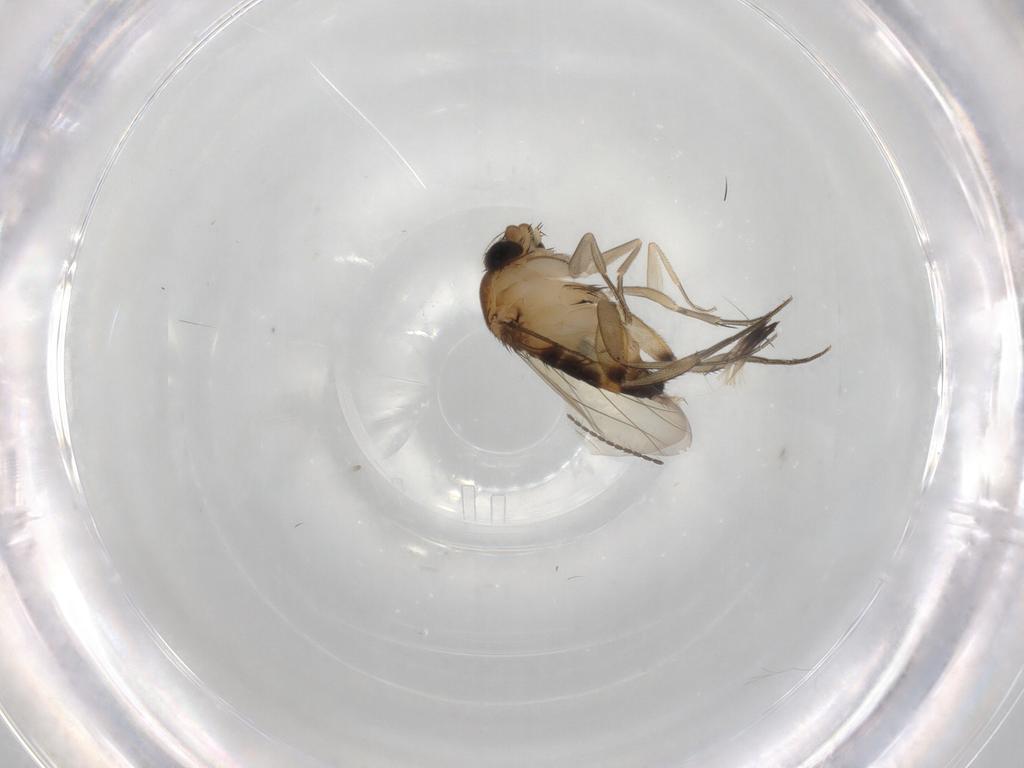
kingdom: Animalia
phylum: Arthropoda
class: Insecta
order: Diptera
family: Phoridae
